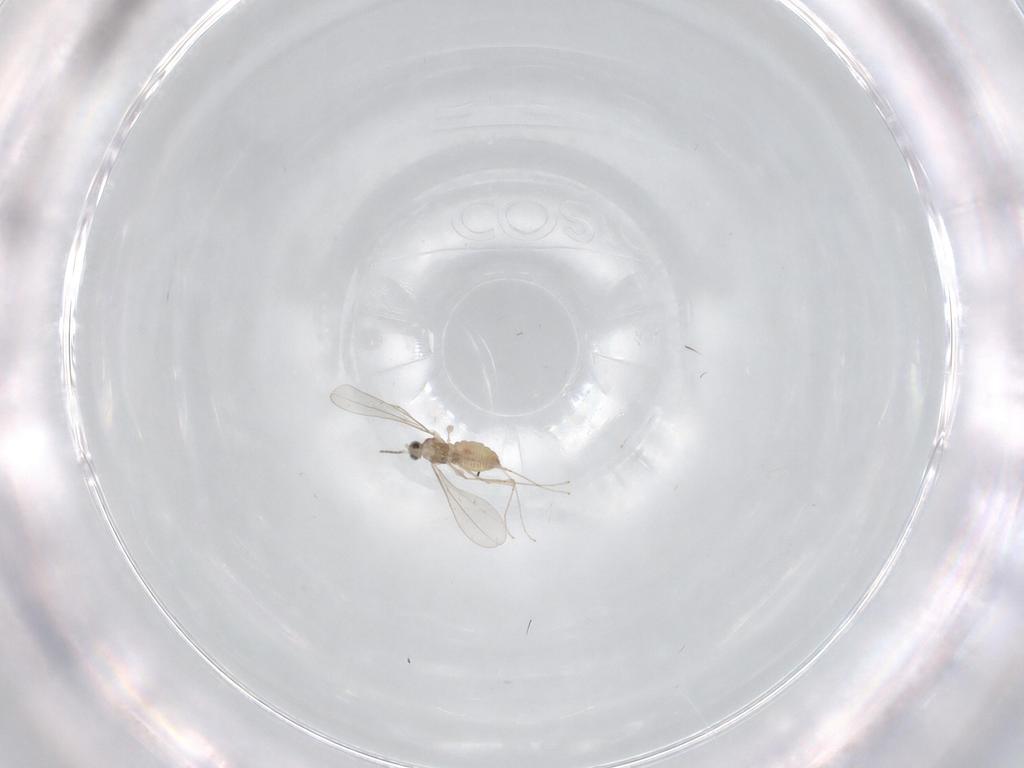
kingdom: Animalia
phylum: Arthropoda
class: Insecta
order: Diptera
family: Cecidomyiidae
